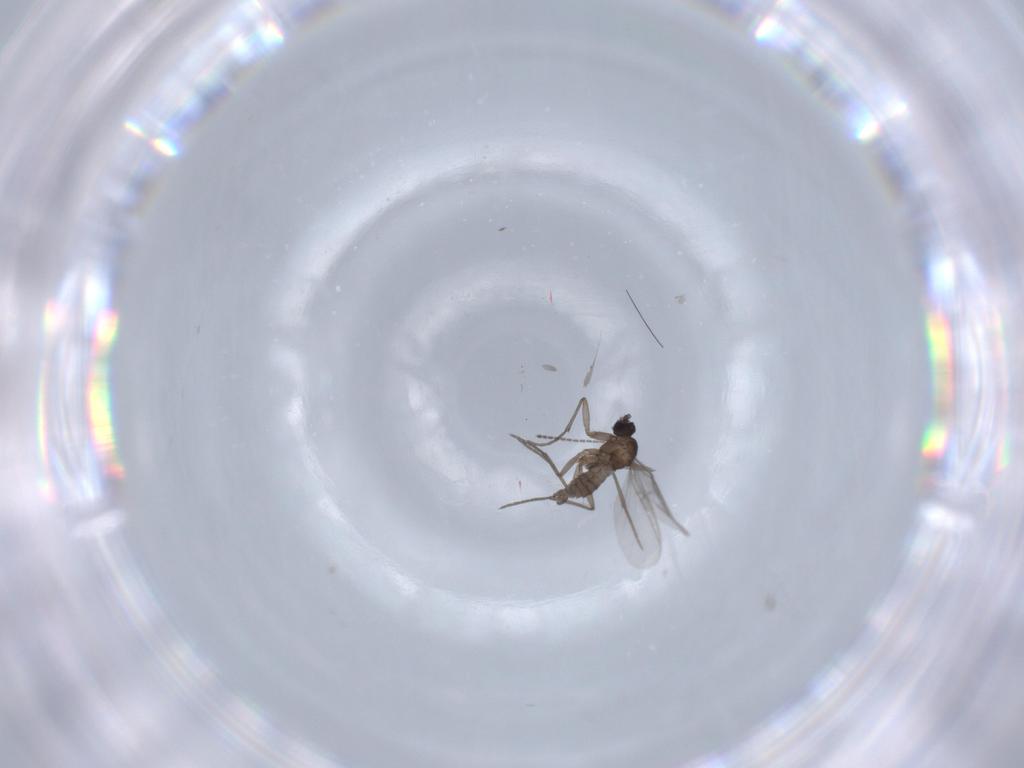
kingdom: Animalia
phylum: Arthropoda
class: Insecta
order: Diptera
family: Sciaridae
